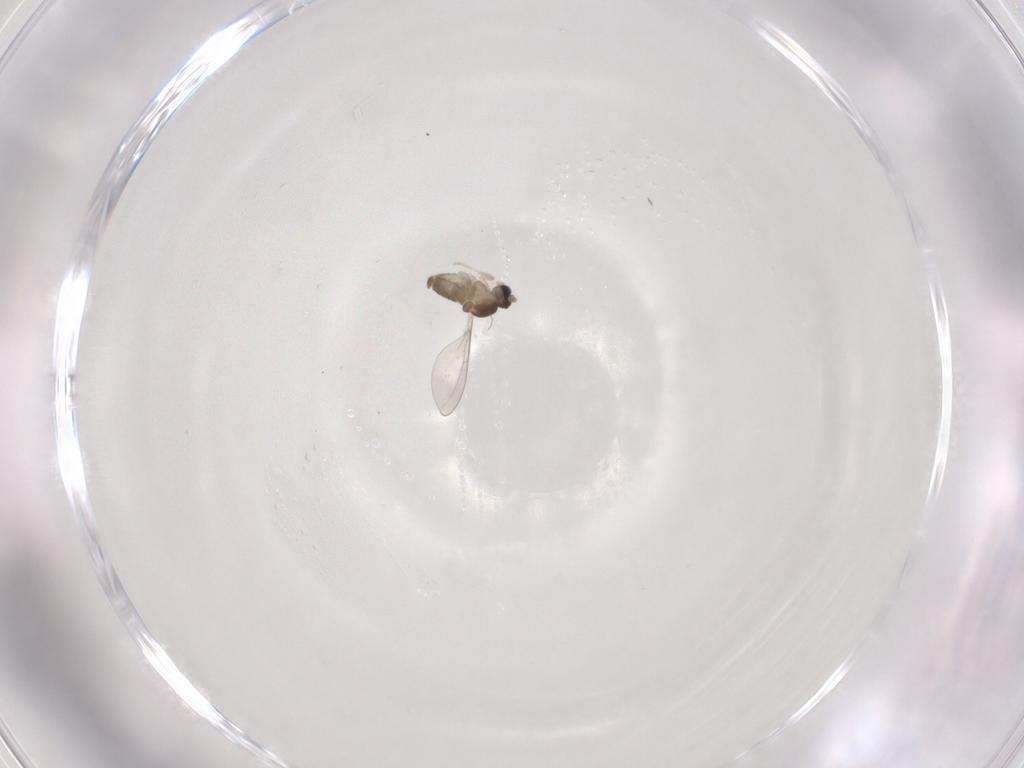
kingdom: Animalia
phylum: Arthropoda
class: Insecta
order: Diptera
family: Cecidomyiidae
